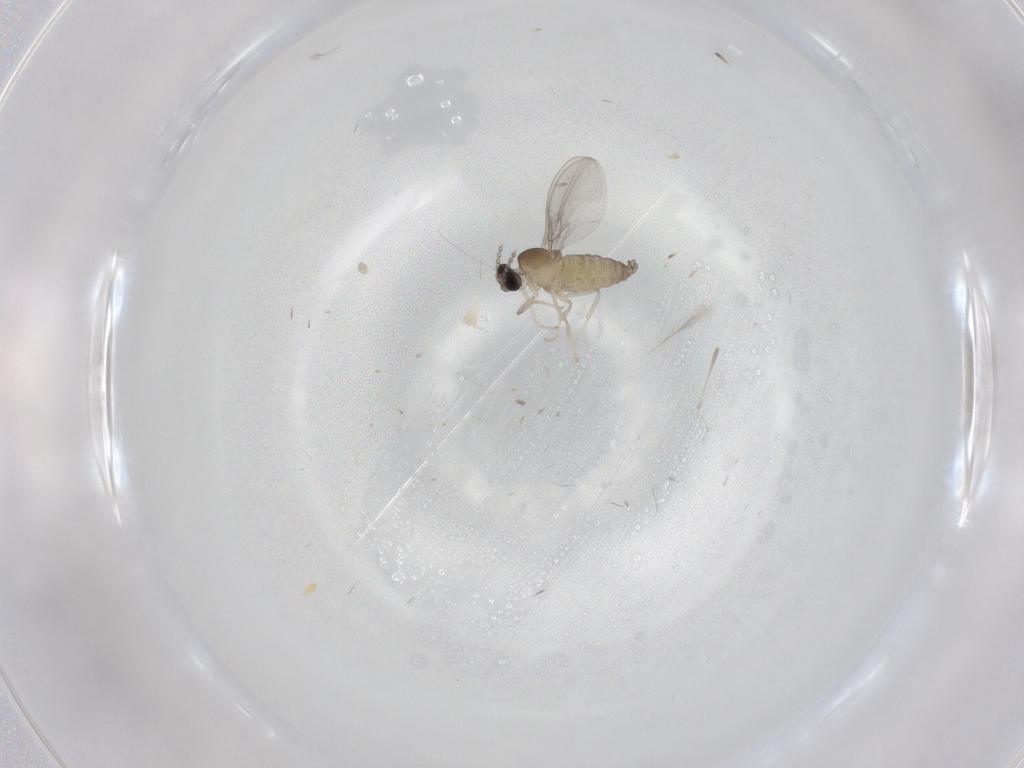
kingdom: Animalia
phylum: Arthropoda
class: Insecta
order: Diptera
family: Cecidomyiidae
